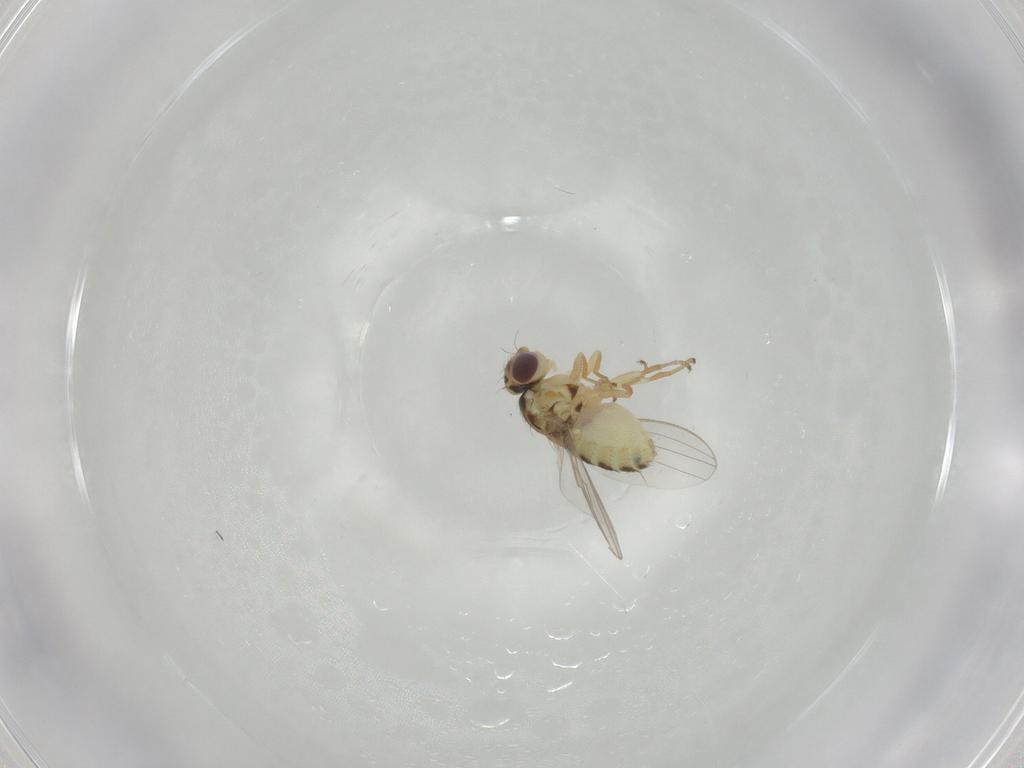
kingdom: Animalia
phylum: Arthropoda
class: Insecta
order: Diptera
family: Chyromyidae
